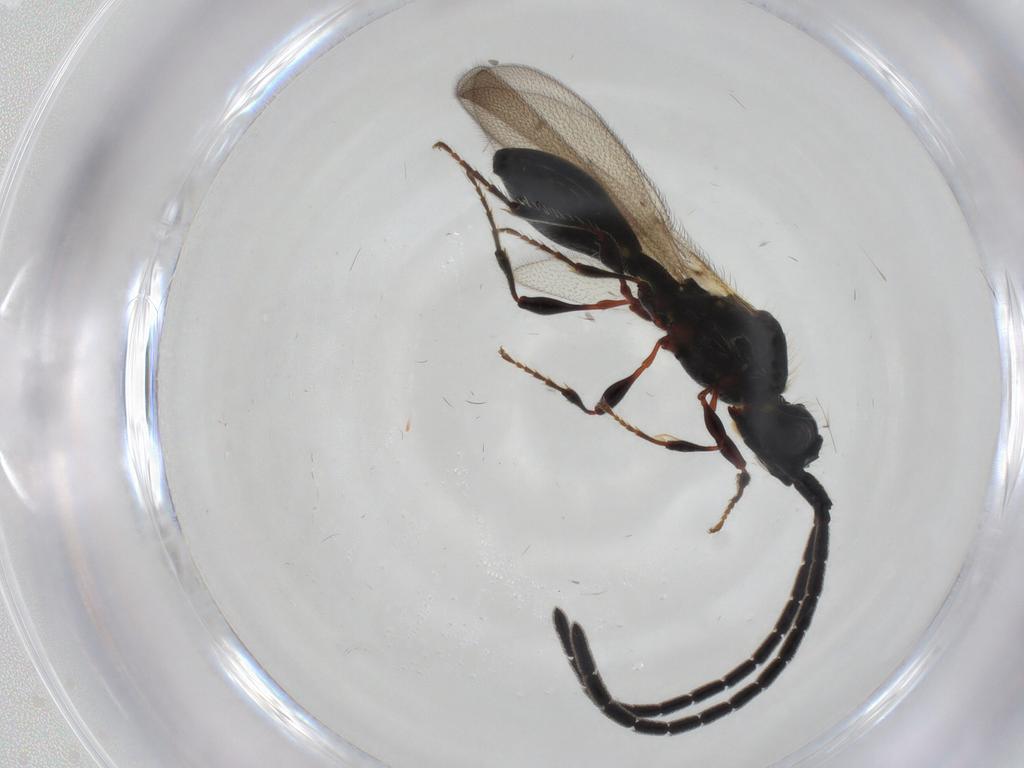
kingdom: Animalia
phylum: Arthropoda
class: Insecta
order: Hymenoptera
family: Diapriidae
